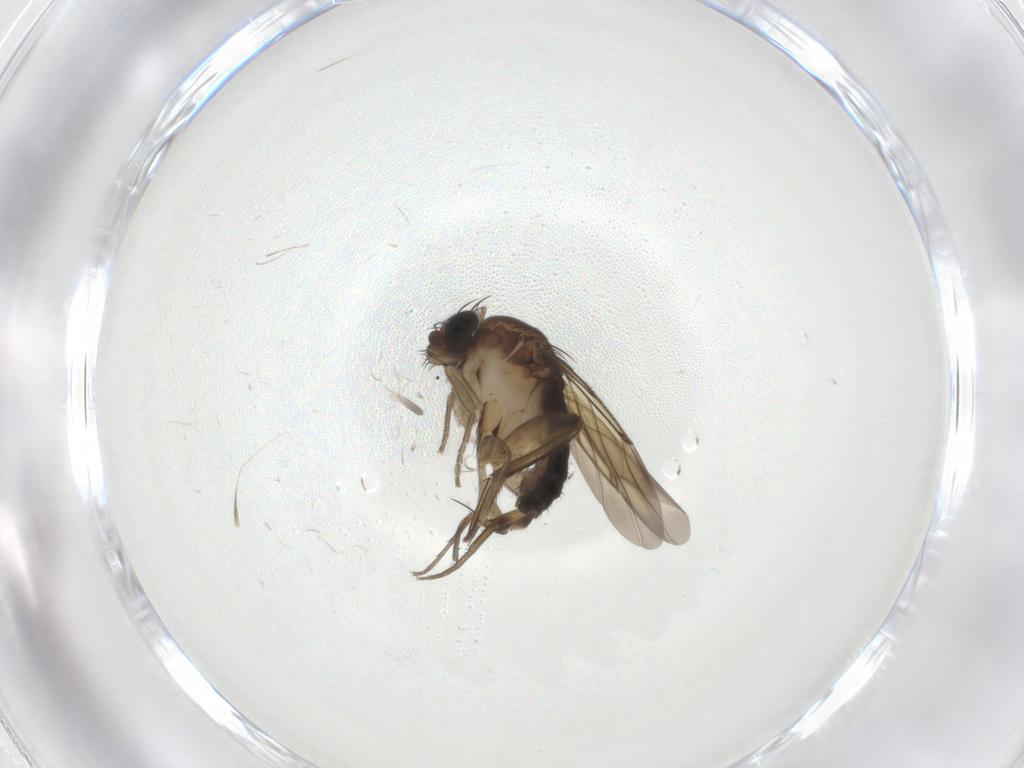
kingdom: Animalia
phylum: Arthropoda
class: Insecta
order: Diptera
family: Phoridae
